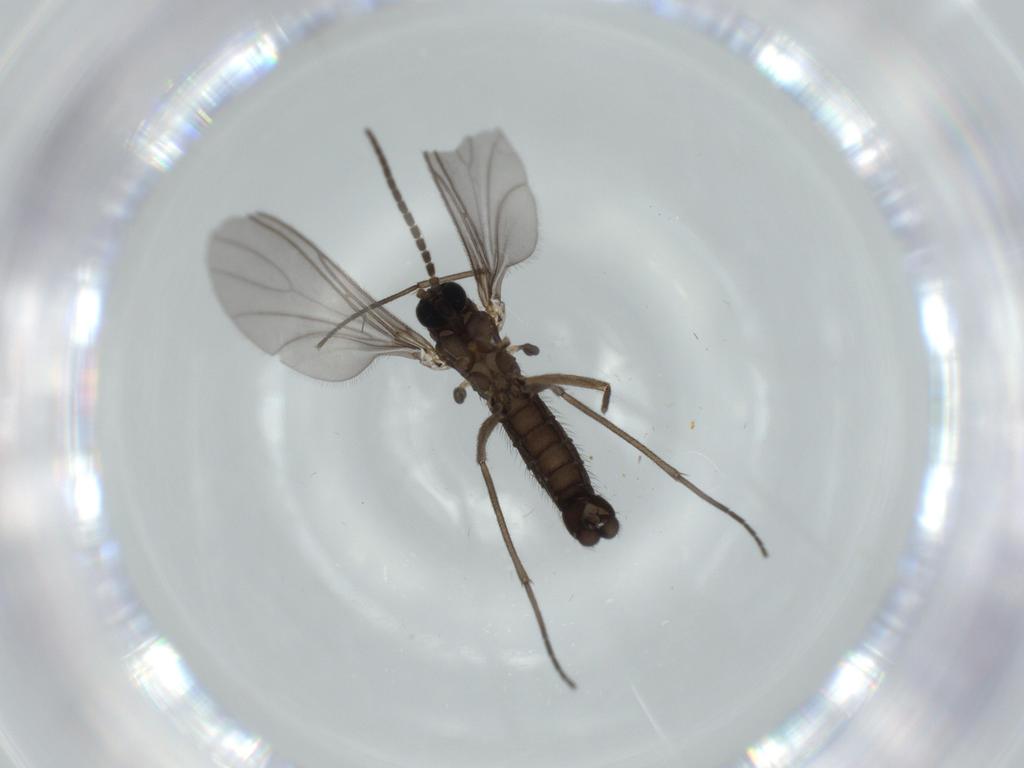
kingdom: Animalia
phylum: Arthropoda
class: Insecta
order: Diptera
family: Sciaridae
